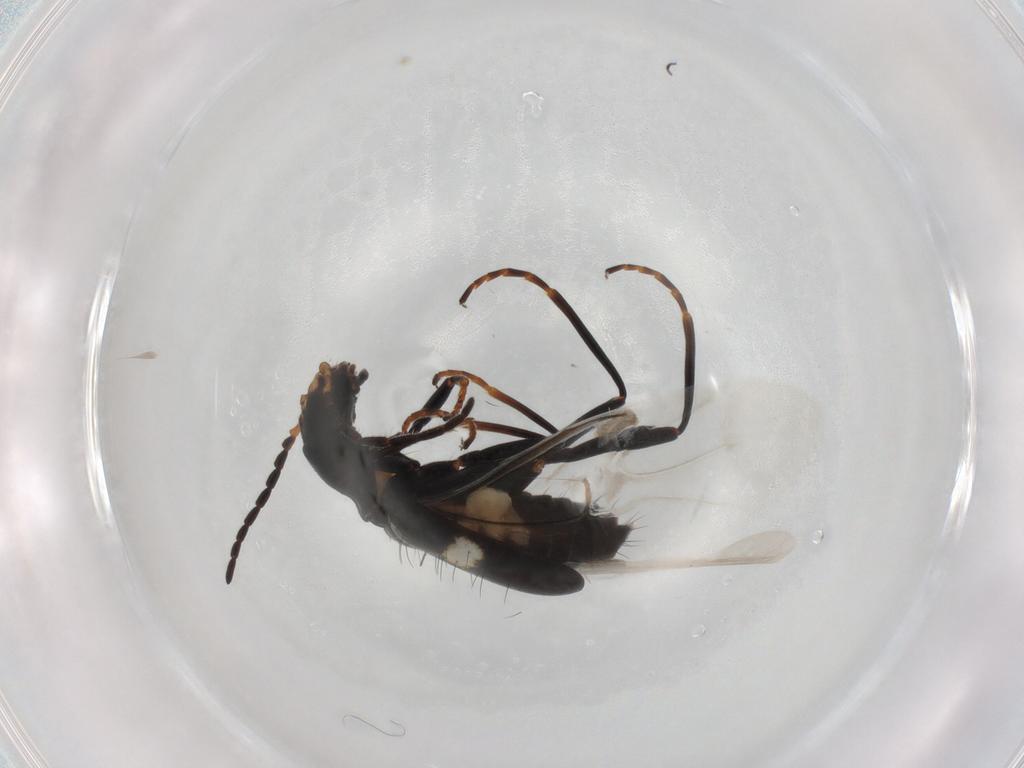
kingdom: Animalia
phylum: Arthropoda
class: Insecta
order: Coleoptera
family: Melyridae
